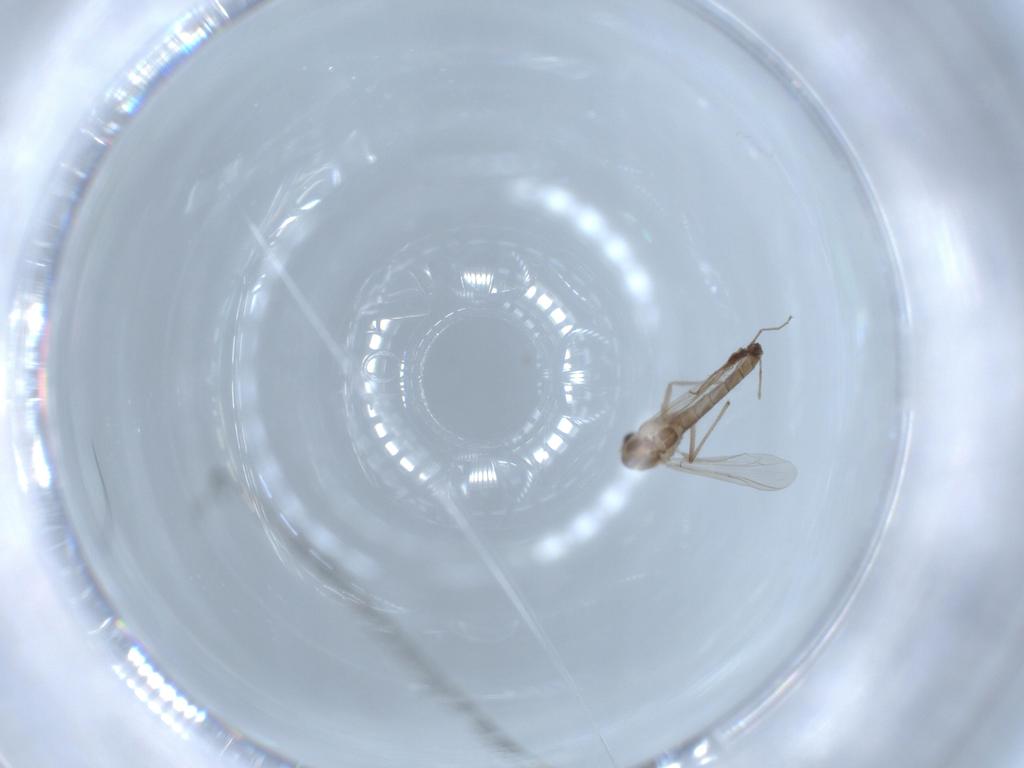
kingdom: Animalia
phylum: Arthropoda
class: Insecta
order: Diptera
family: Chironomidae
